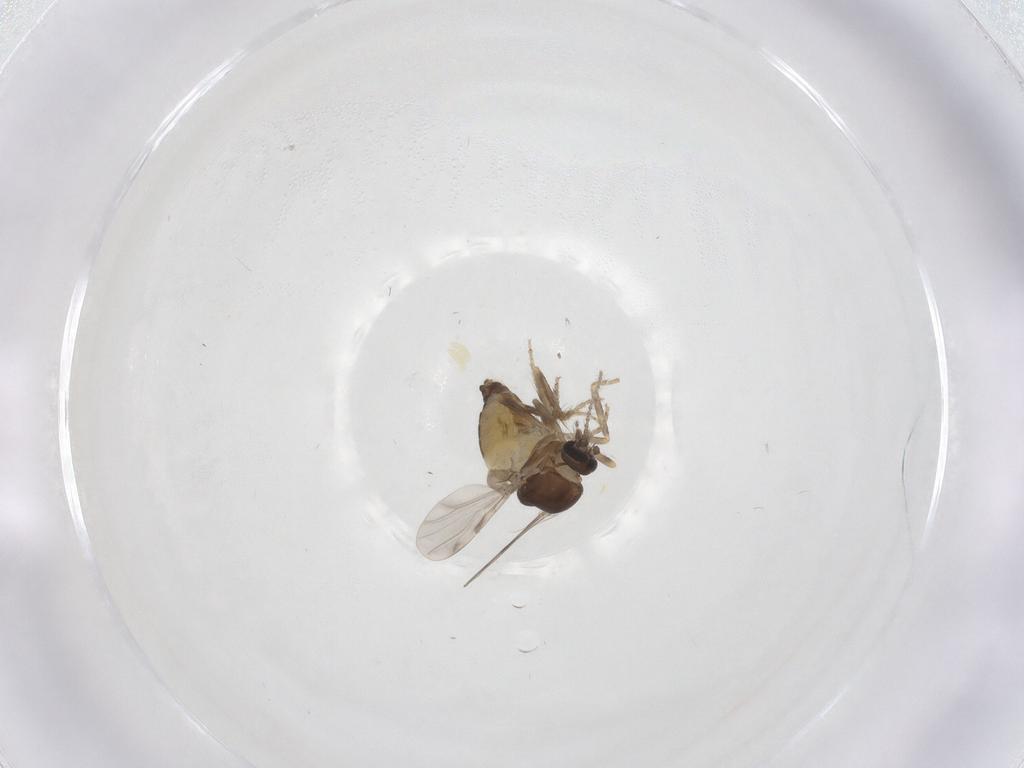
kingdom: Animalia
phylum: Arthropoda
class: Insecta
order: Diptera
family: Ceratopogonidae
